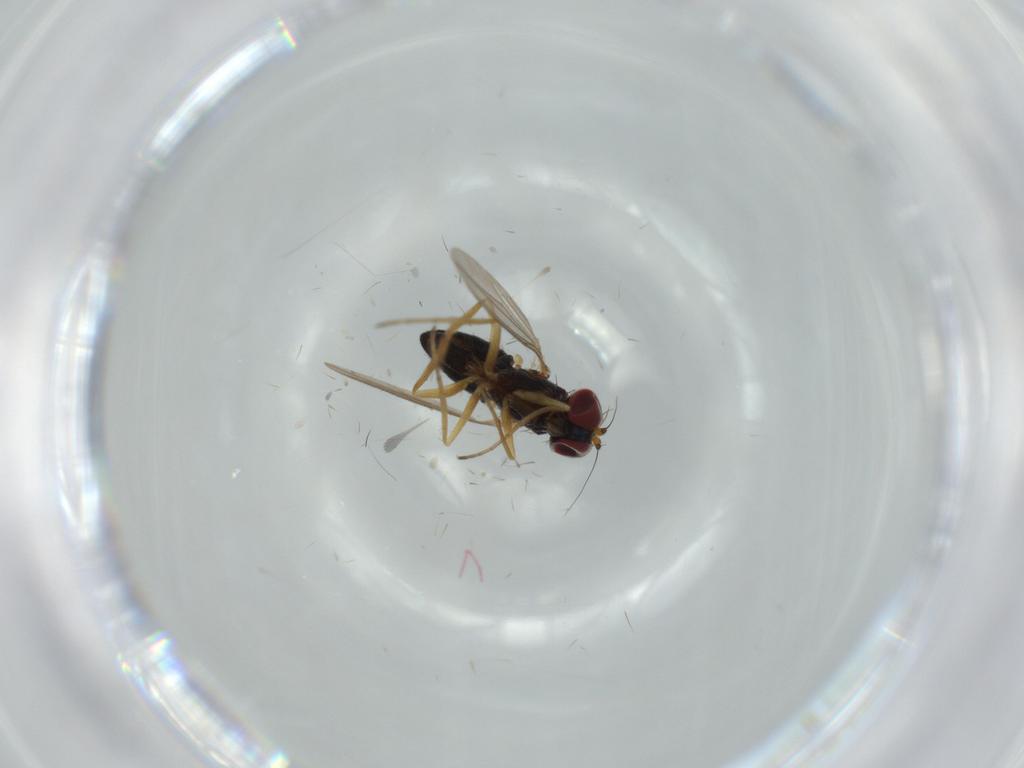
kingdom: Animalia
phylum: Arthropoda
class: Insecta
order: Diptera
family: Dolichopodidae
